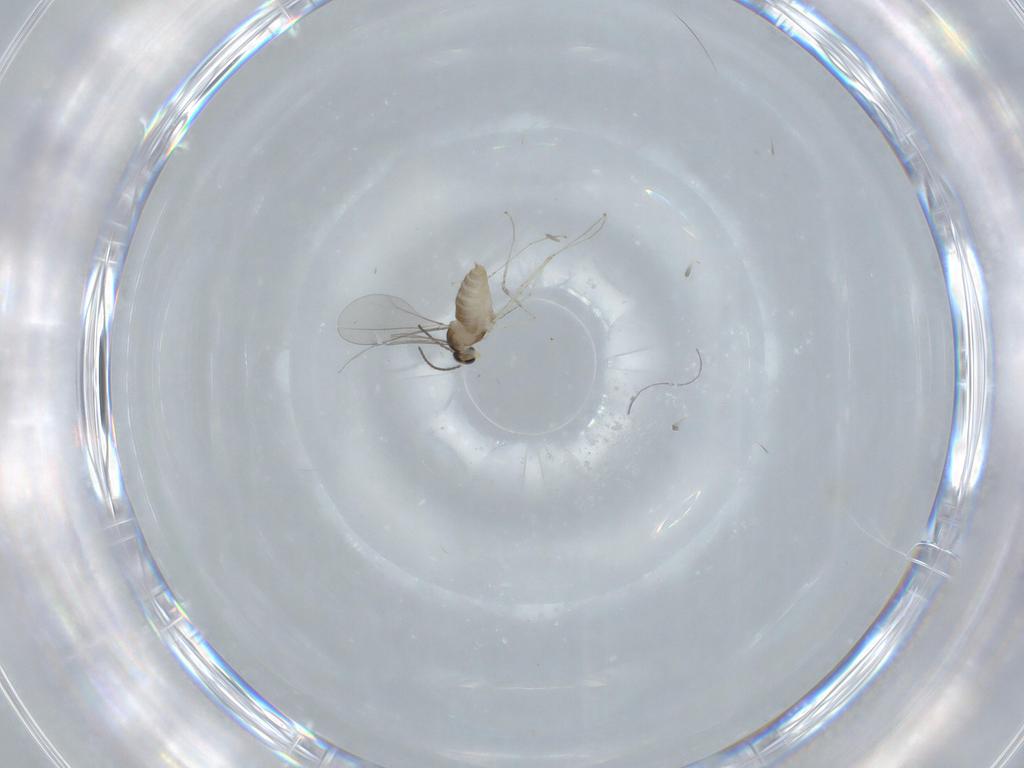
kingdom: Animalia
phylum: Arthropoda
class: Insecta
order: Diptera
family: Cecidomyiidae
